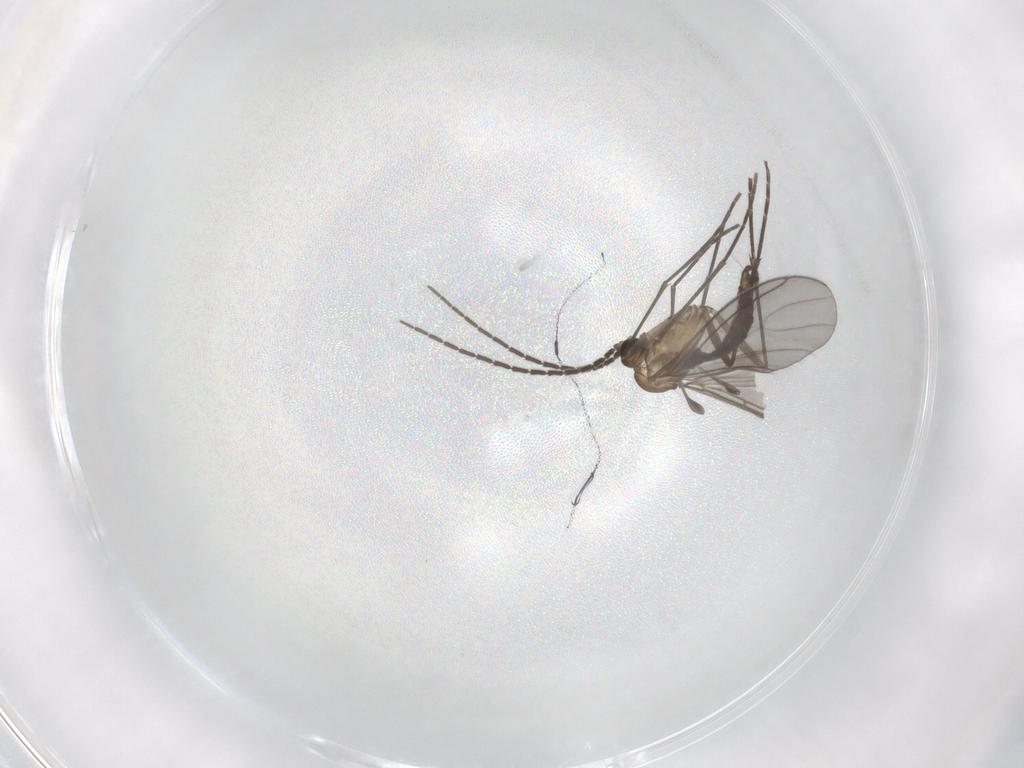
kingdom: Animalia
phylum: Arthropoda
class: Insecta
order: Diptera
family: Sciaridae
